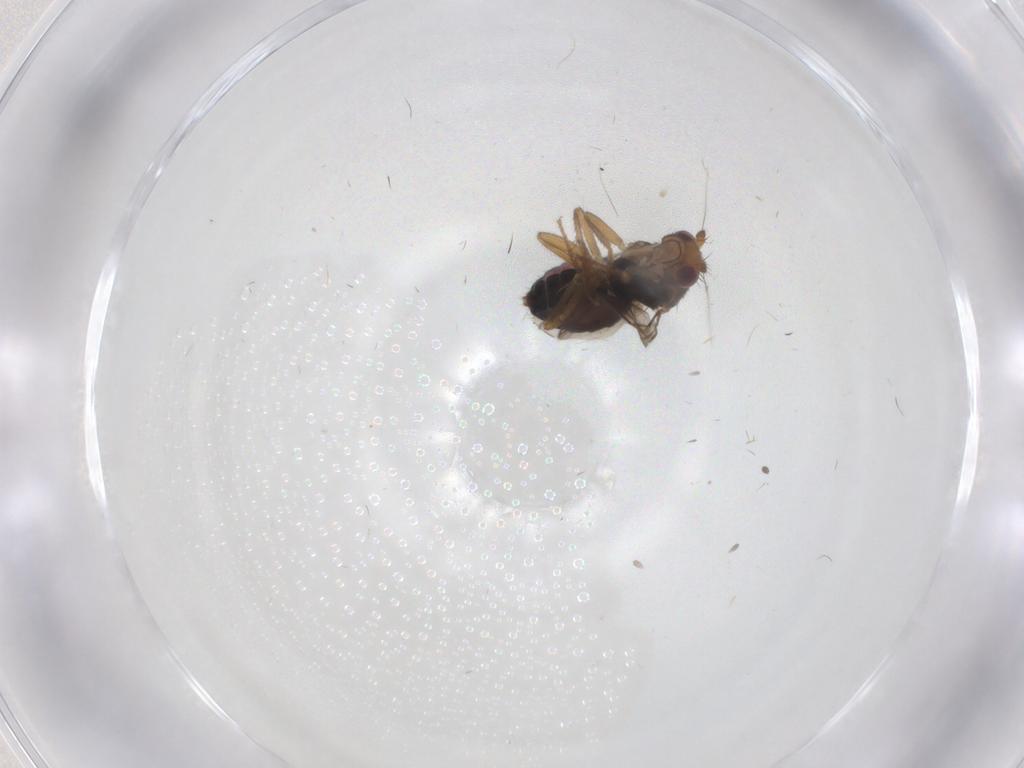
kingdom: Animalia
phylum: Arthropoda
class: Insecta
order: Diptera
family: Sphaeroceridae
